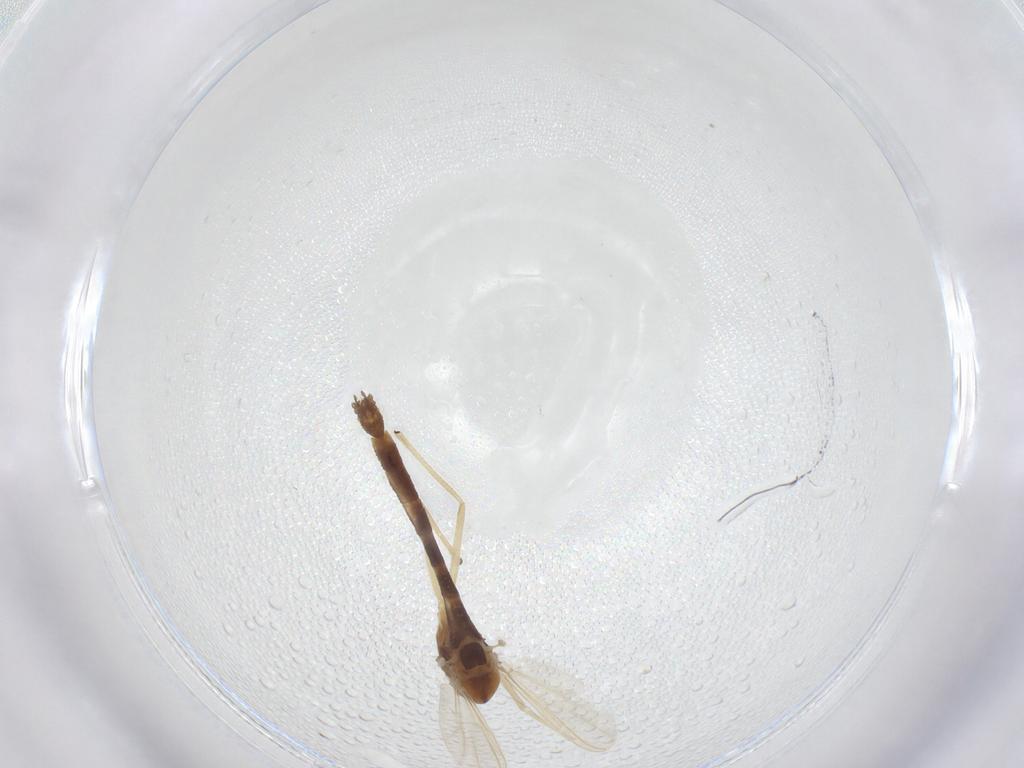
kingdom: Animalia
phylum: Arthropoda
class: Insecta
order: Diptera
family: Chironomidae
